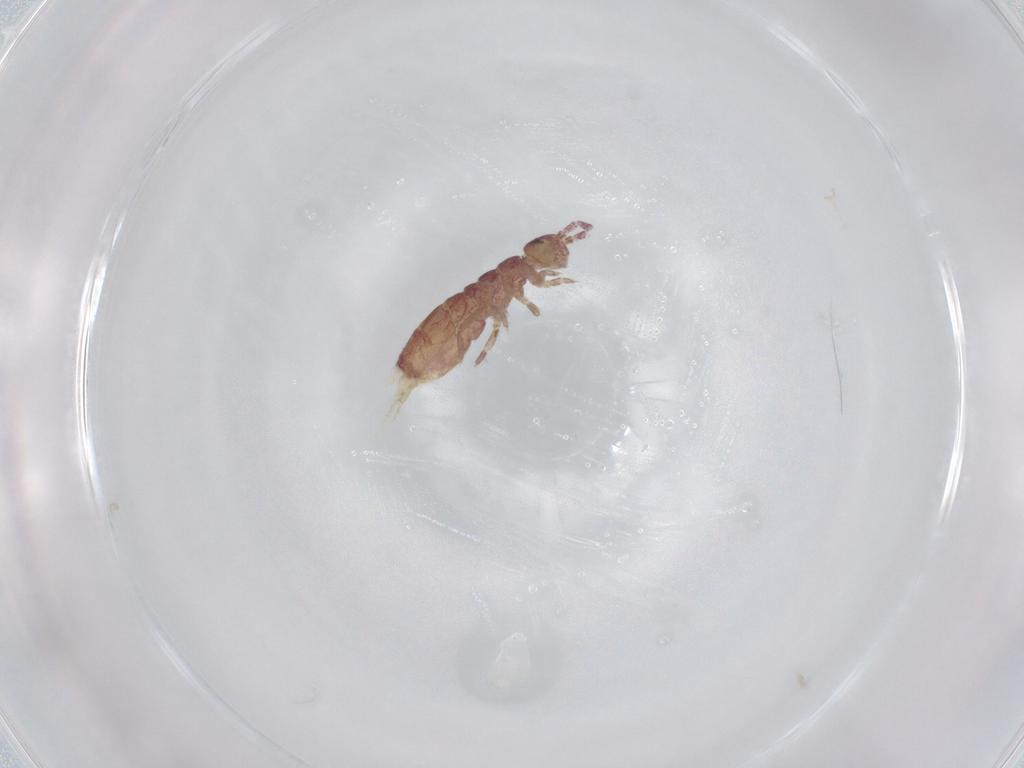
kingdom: Animalia
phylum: Arthropoda
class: Collembola
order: Entomobryomorpha
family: Isotomidae
